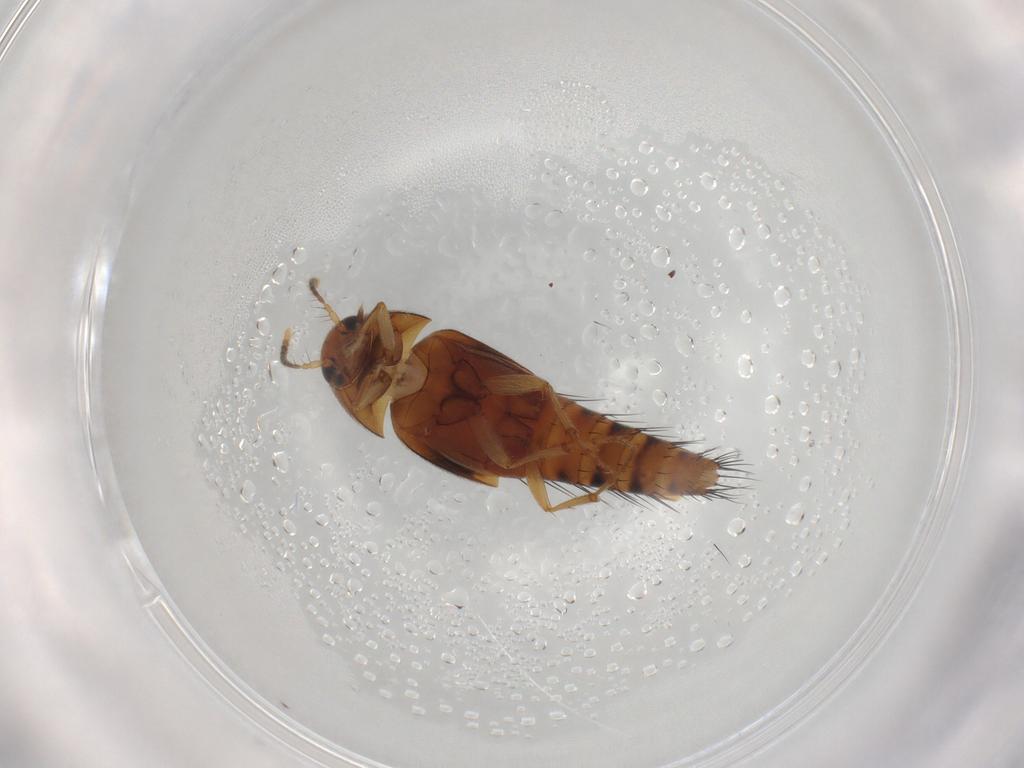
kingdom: Animalia
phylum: Arthropoda
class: Insecta
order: Coleoptera
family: Staphylinidae
